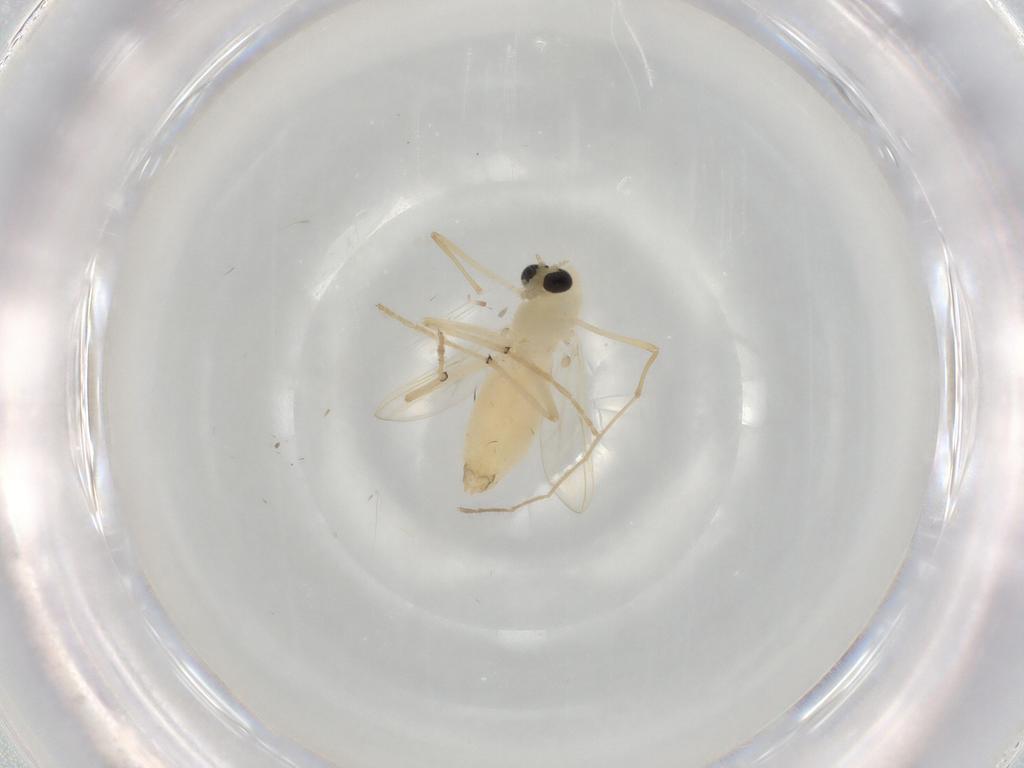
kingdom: Animalia
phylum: Arthropoda
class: Insecta
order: Diptera
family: Chironomidae
